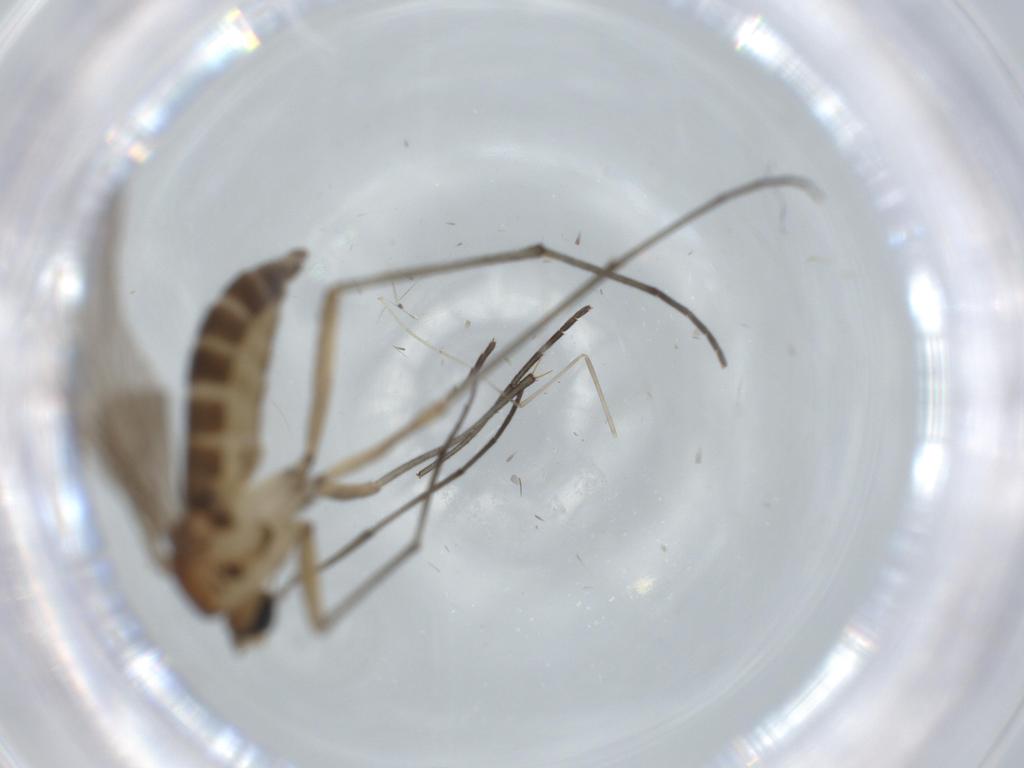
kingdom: Animalia
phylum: Arthropoda
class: Insecta
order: Diptera
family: Sciaridae
